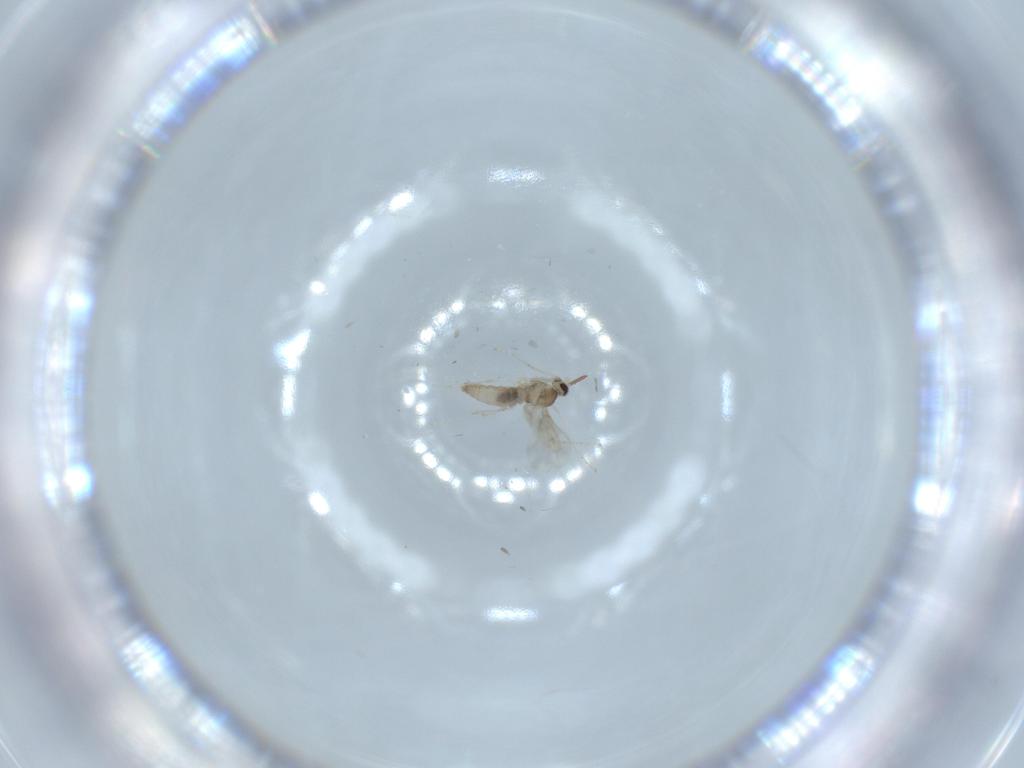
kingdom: Animalia
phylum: Arthropoda
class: Insecta
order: Diptera
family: Cecidomyiidae
